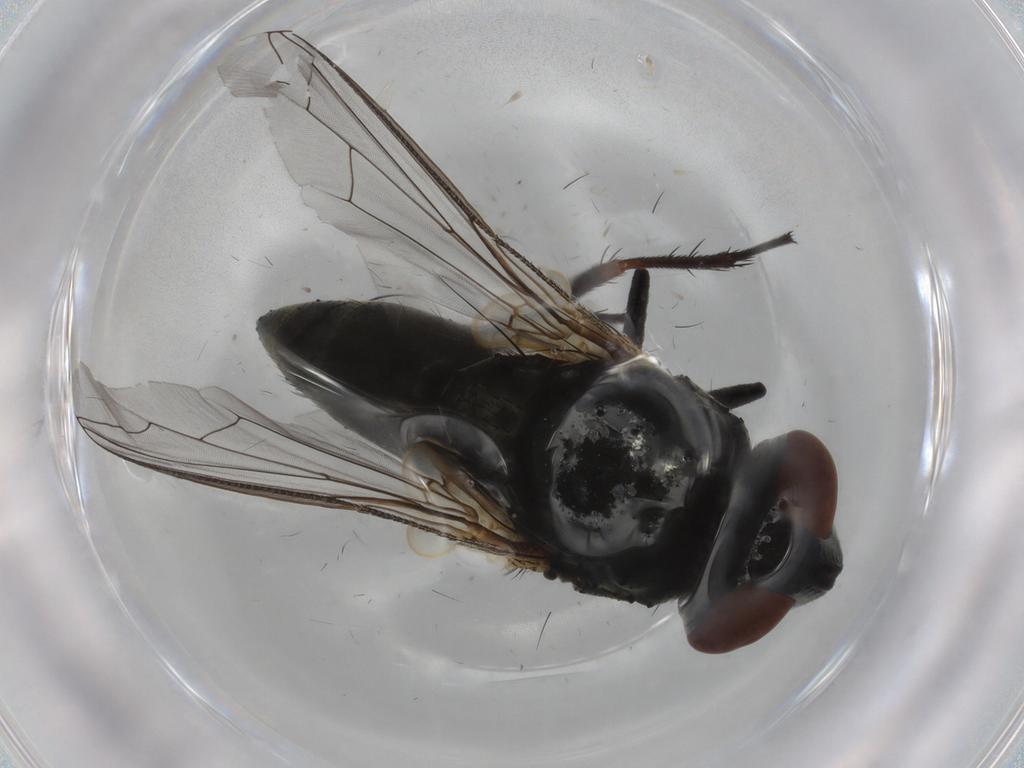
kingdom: Animalia
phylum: Arthropoda
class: Insecta
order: Diptera
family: Sarcophagidae
